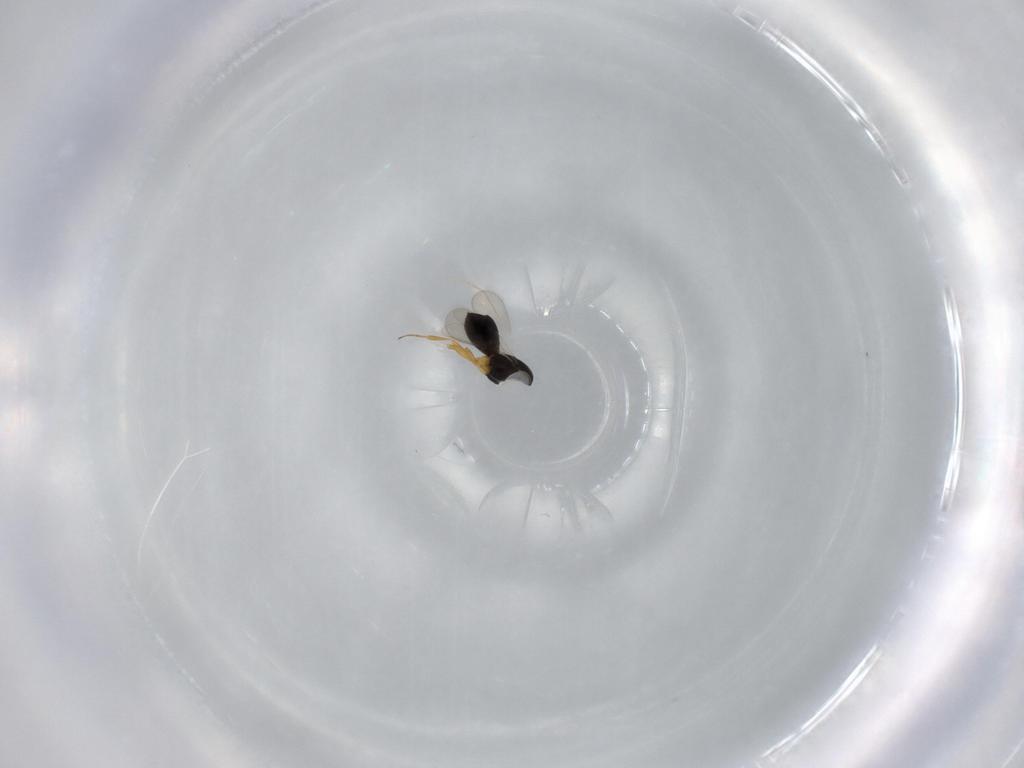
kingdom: Animalia
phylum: Arthropoda
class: Insecta
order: Hymenoptera
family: Scelionidae
